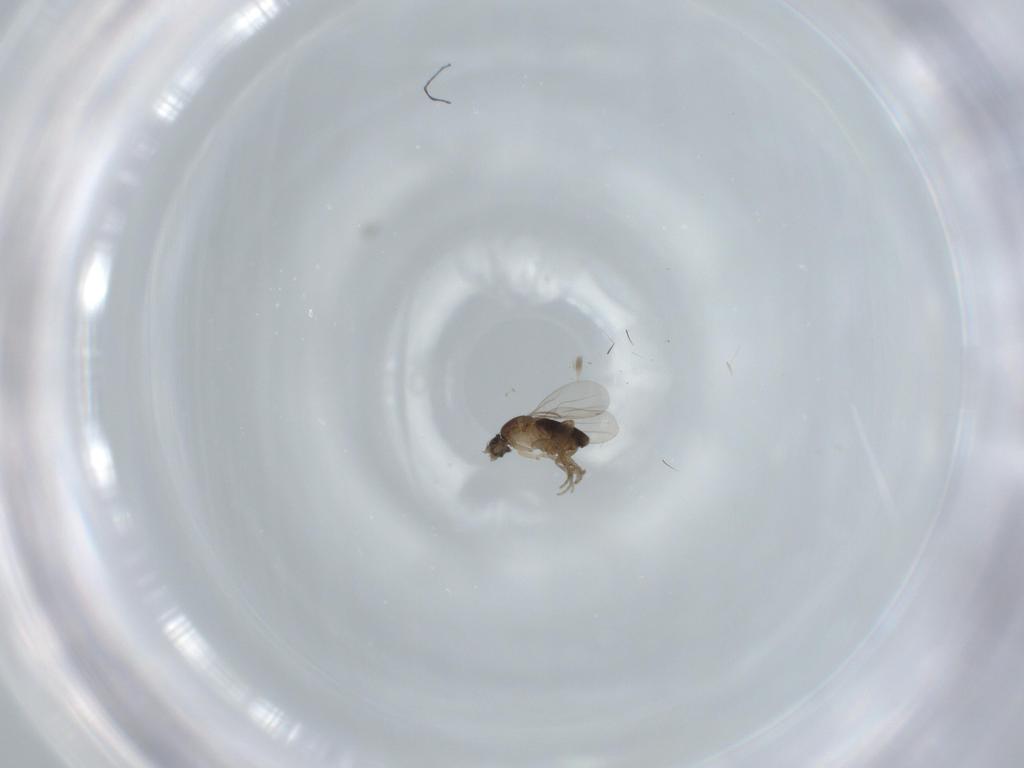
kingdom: Animalia
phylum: Arthropoda
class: Insecta
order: Diptera
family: Phoridae
